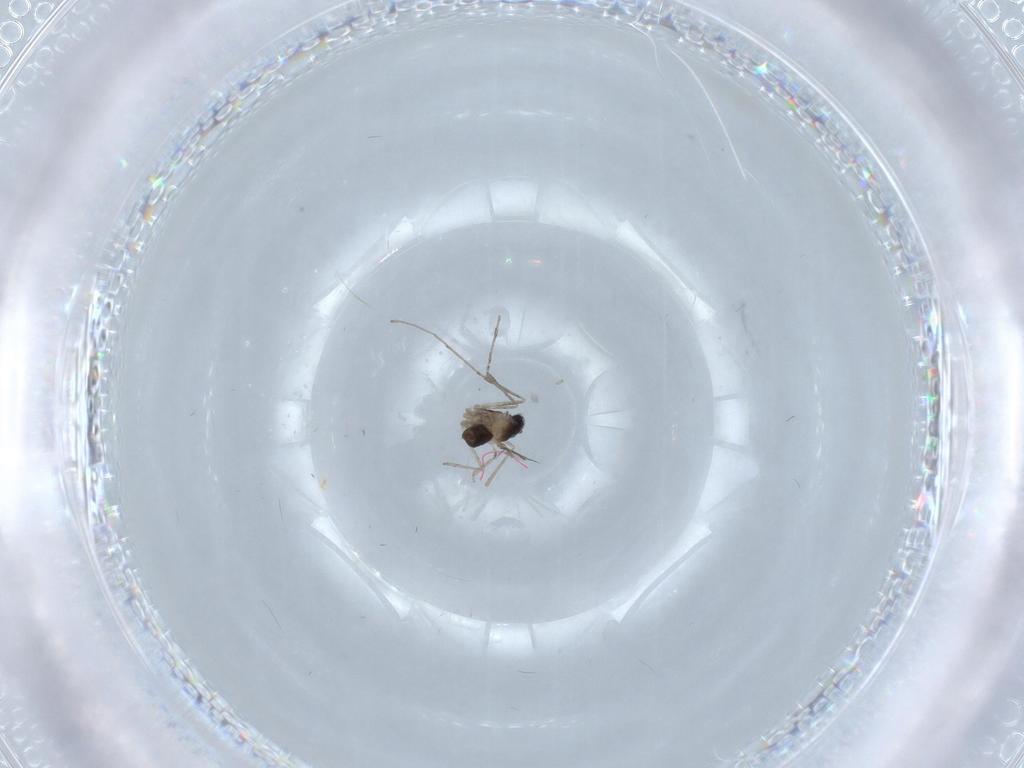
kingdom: Animalia
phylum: Arthropoda
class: Insecta
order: Diptera
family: Cecidomyiidae
